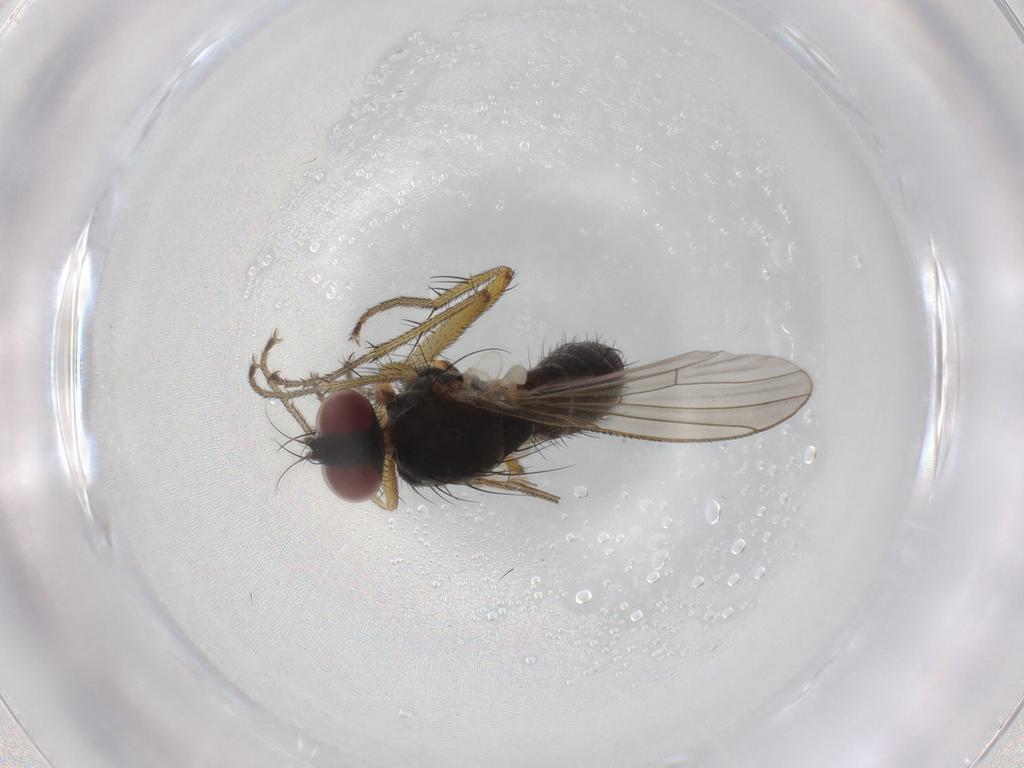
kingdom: Animalia
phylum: Arthropoda
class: Insecta
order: Diptera
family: Muscidae
